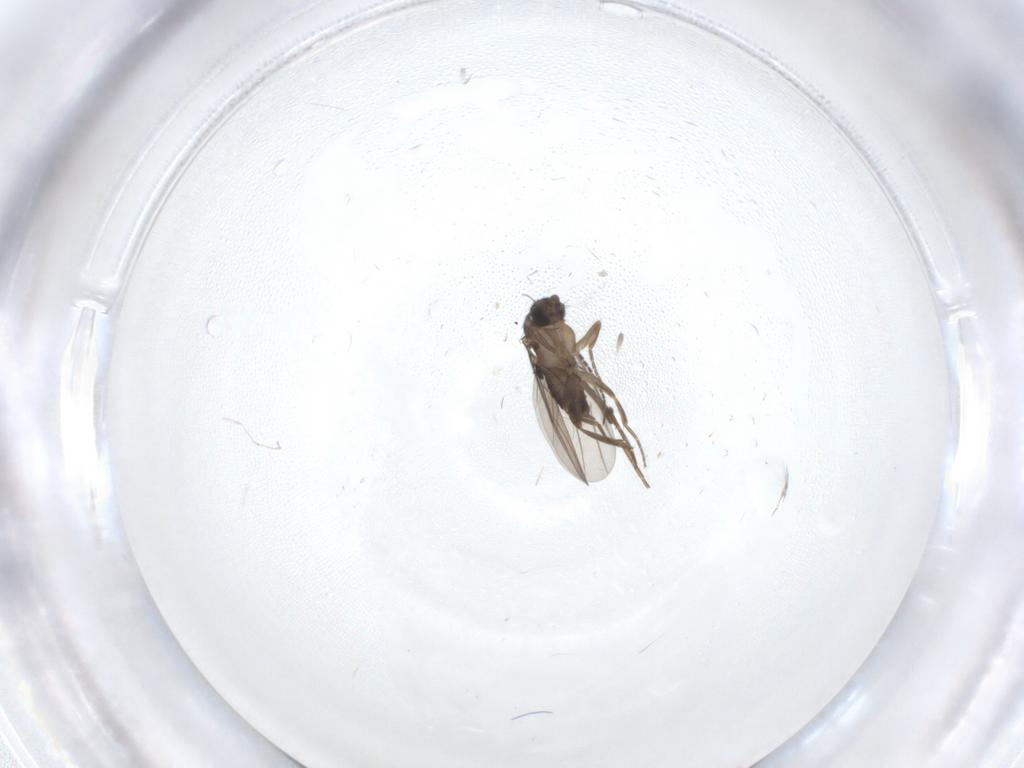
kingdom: Animalia
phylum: Arthropoda
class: Insecta
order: Diptera
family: Phoridae
